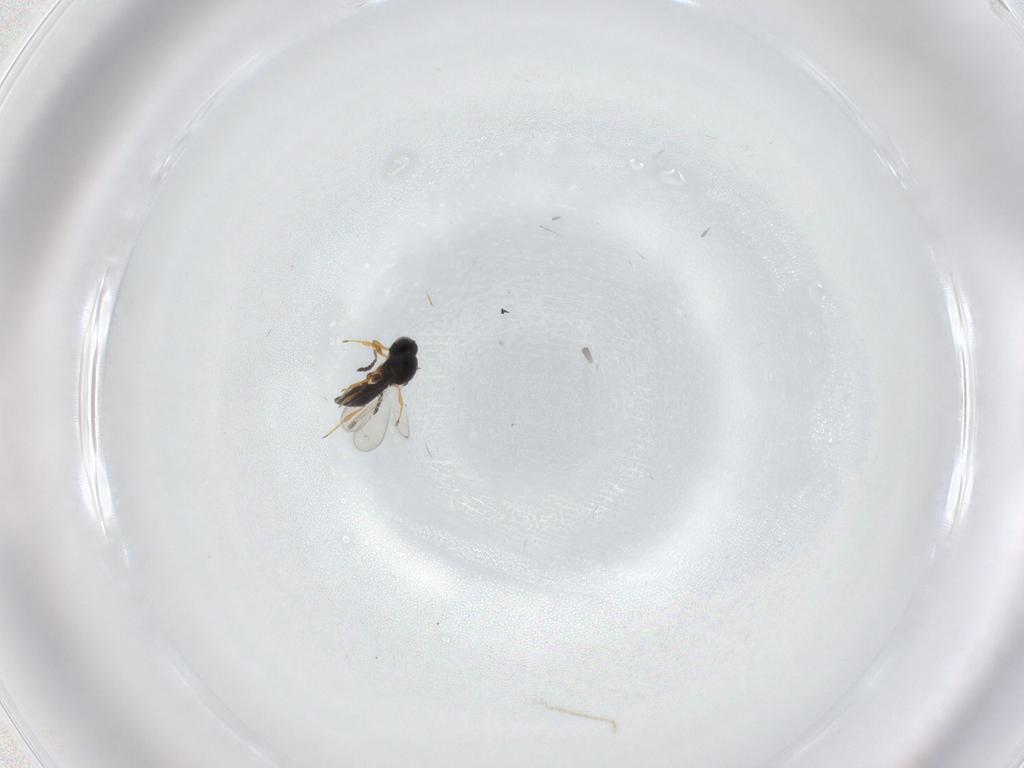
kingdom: Animalia
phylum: Arthropoda
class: Insecta
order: Hymenoptera
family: Platygastridae
